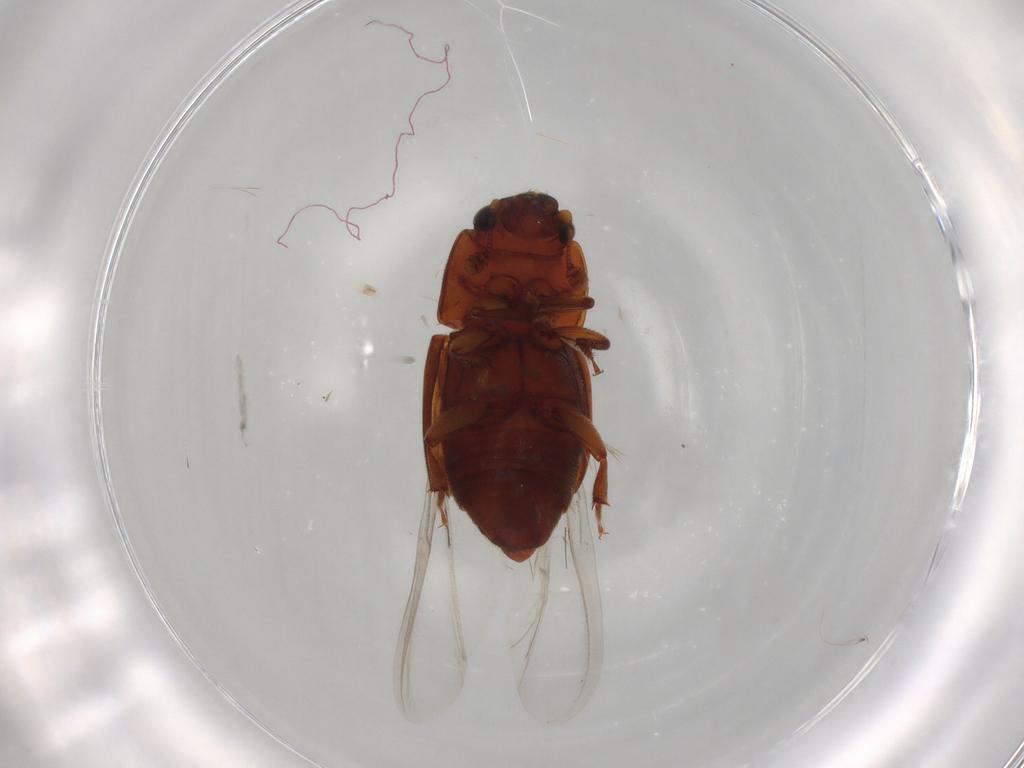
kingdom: Animalia
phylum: Arthropoda
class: Insecta
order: Coleoptera
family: Nitidulidae
